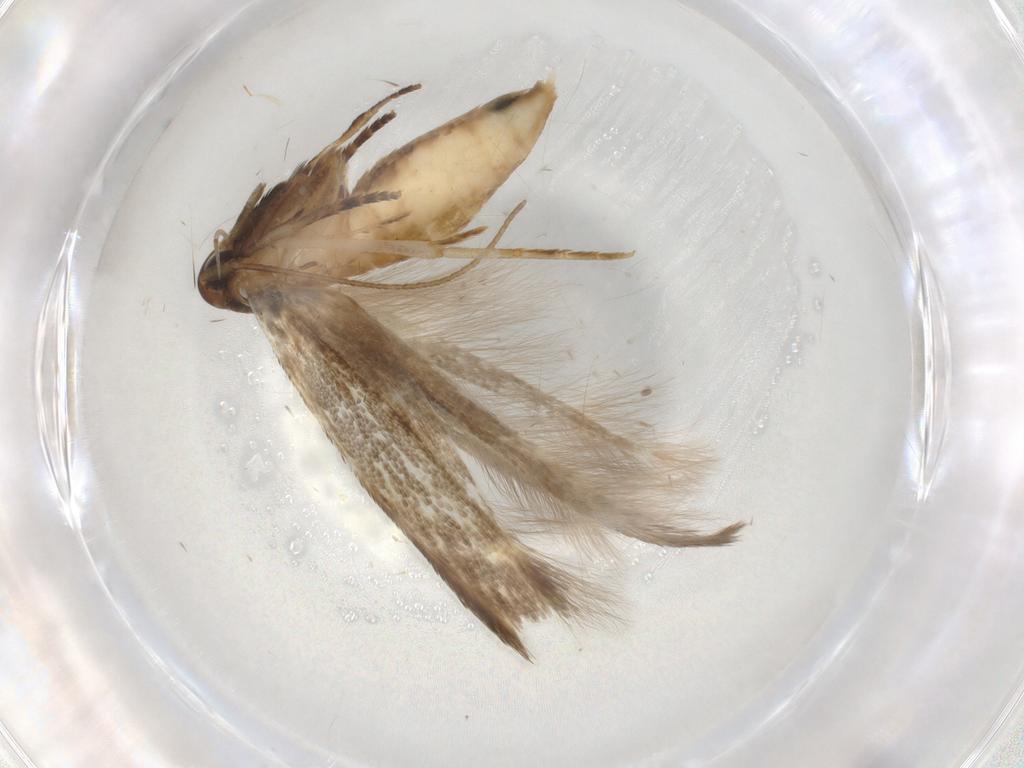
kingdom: Animalia
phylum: Arthropoda
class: Insecta
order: Lepidoptera
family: Cosmopterigidae
